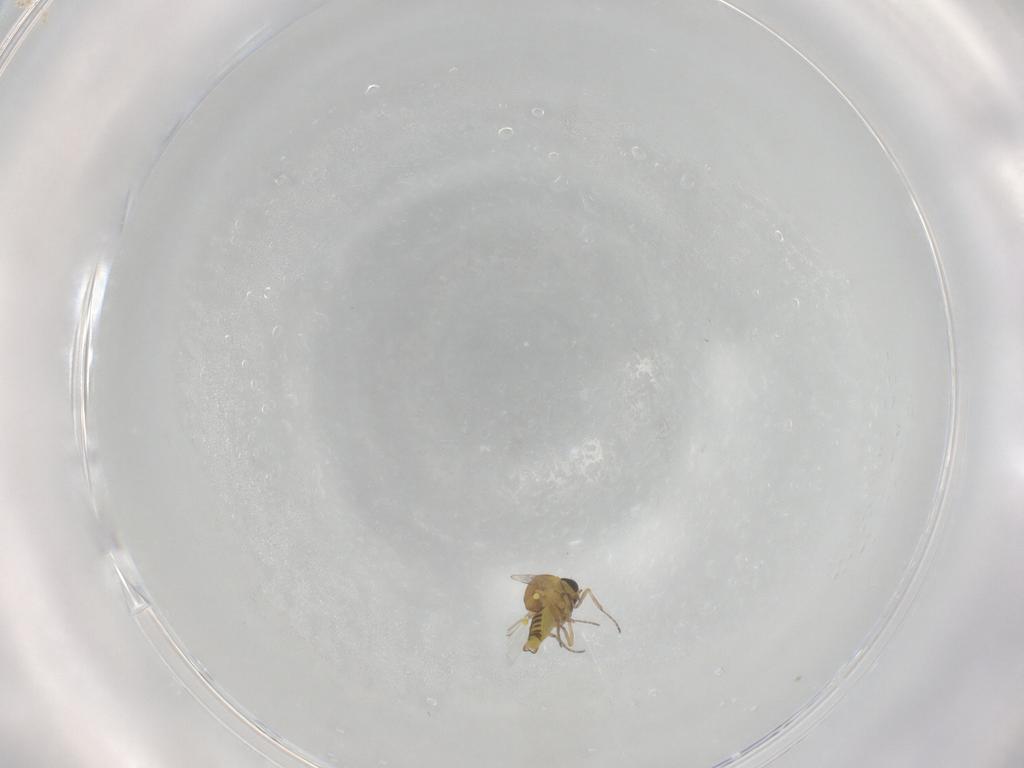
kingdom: Animalia
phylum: Arthropoda
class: Insecta
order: Diptera
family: Ceratopogonidae
